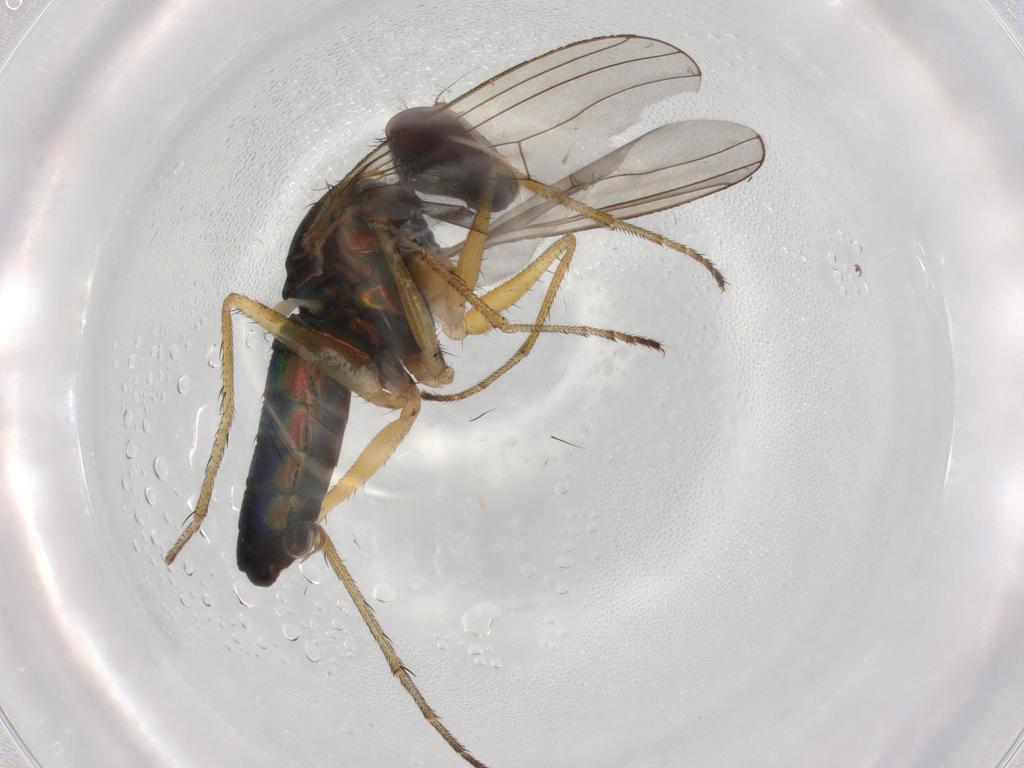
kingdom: Animalia
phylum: Arthropoda
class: Insecta
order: Diptera
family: Dolichopodidae
